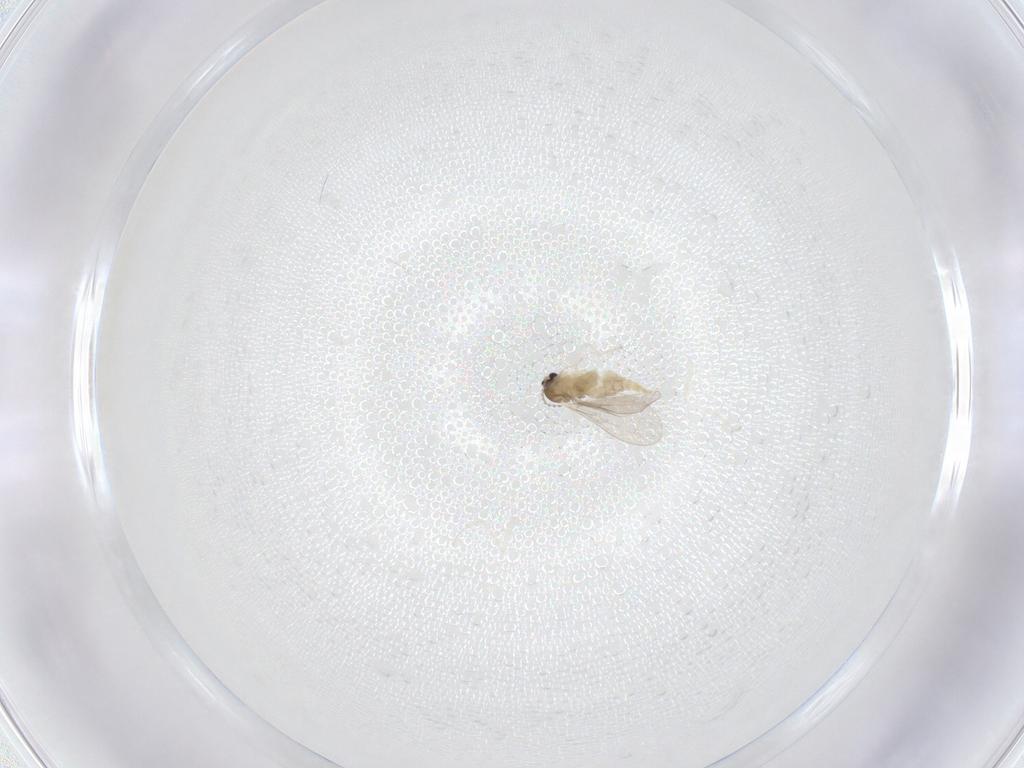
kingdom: Animalia
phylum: Arthropoda
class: Insecta
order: Diptera
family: Cecidomyiidae
